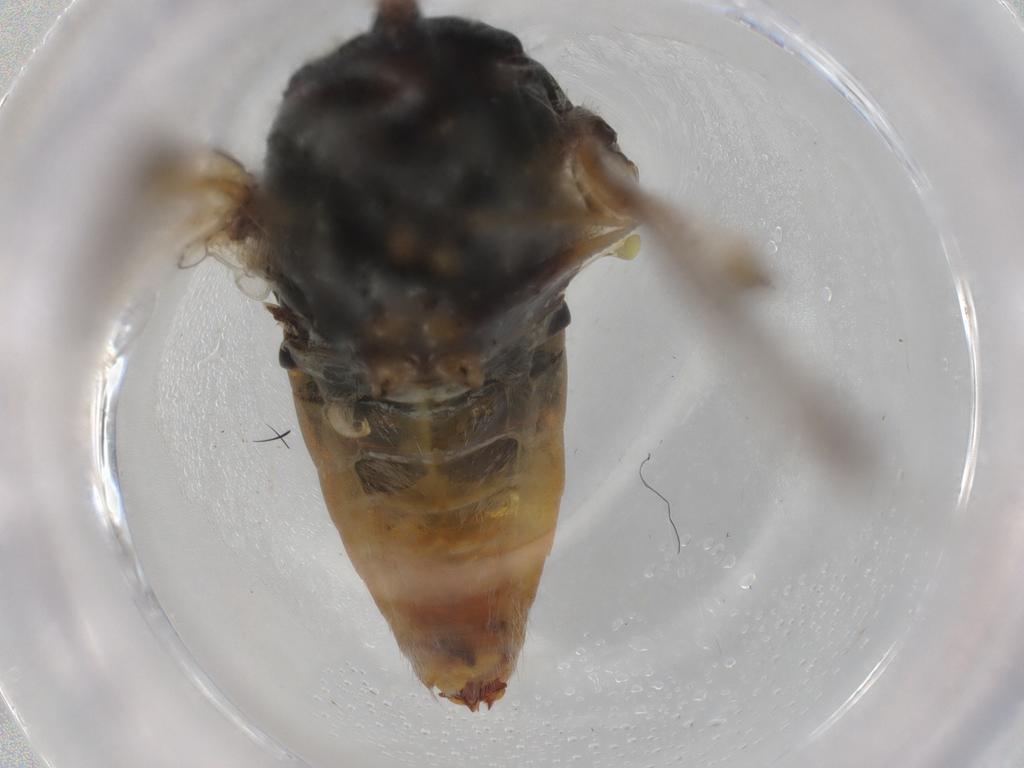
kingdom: Animalia
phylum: Arthropoda
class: Insecta
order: Diptera
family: Bombyliidae
